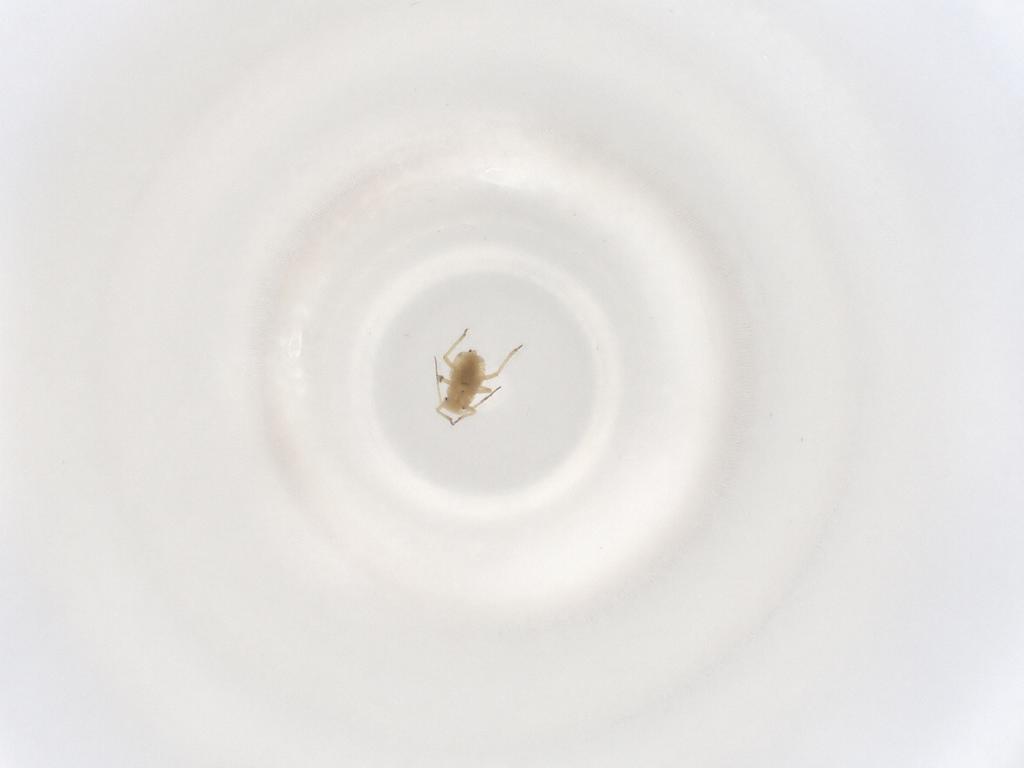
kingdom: Animalia
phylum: Arthropoda
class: Insecta
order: Hemiptera
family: Aphididae
